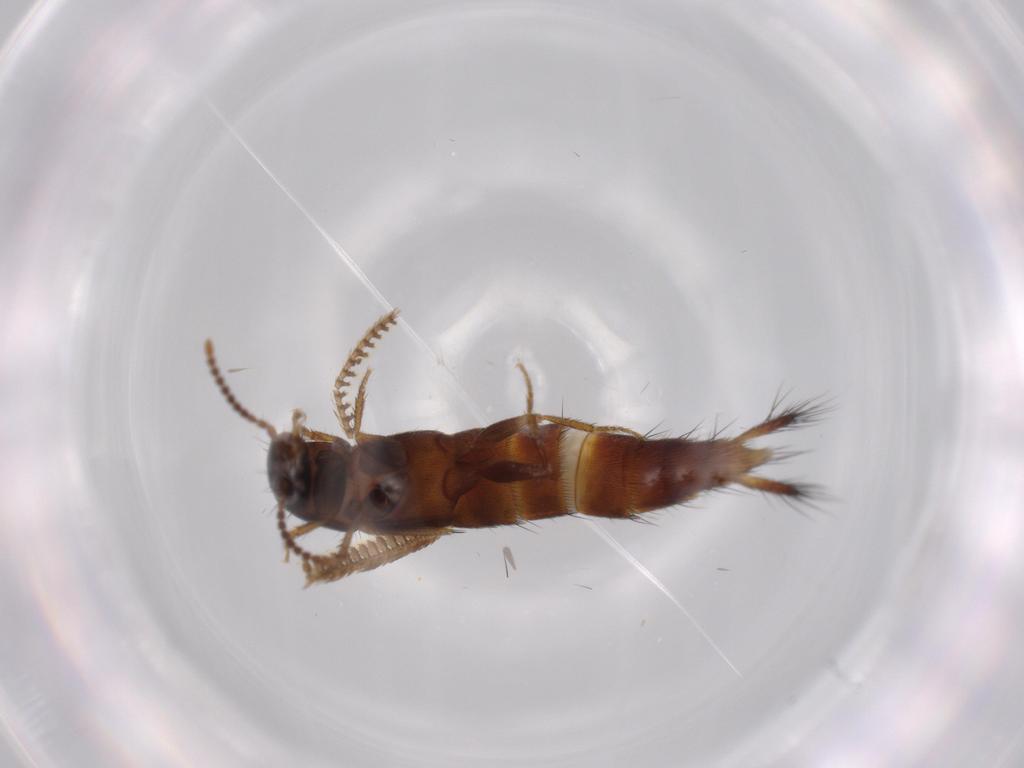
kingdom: Animalia
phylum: Arthropoda
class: Insecta
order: Coleoptera
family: Staphylinidae
